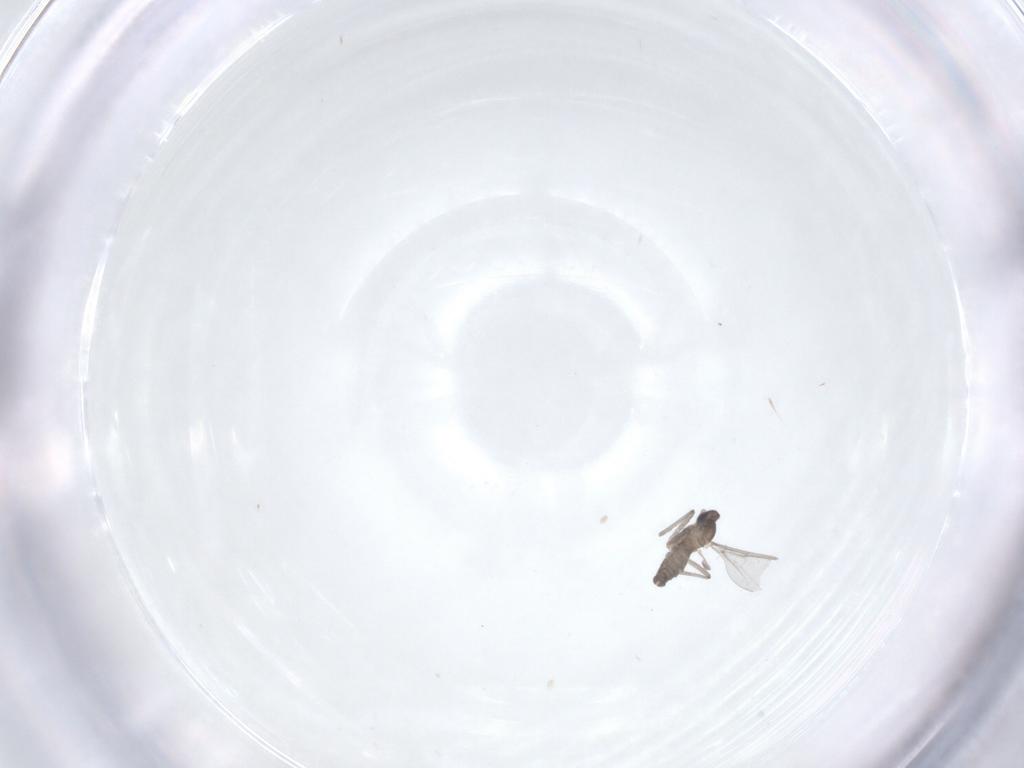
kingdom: Animalia
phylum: Arthropoda
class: Insecta
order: Diptera
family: Cecidomyiidae
